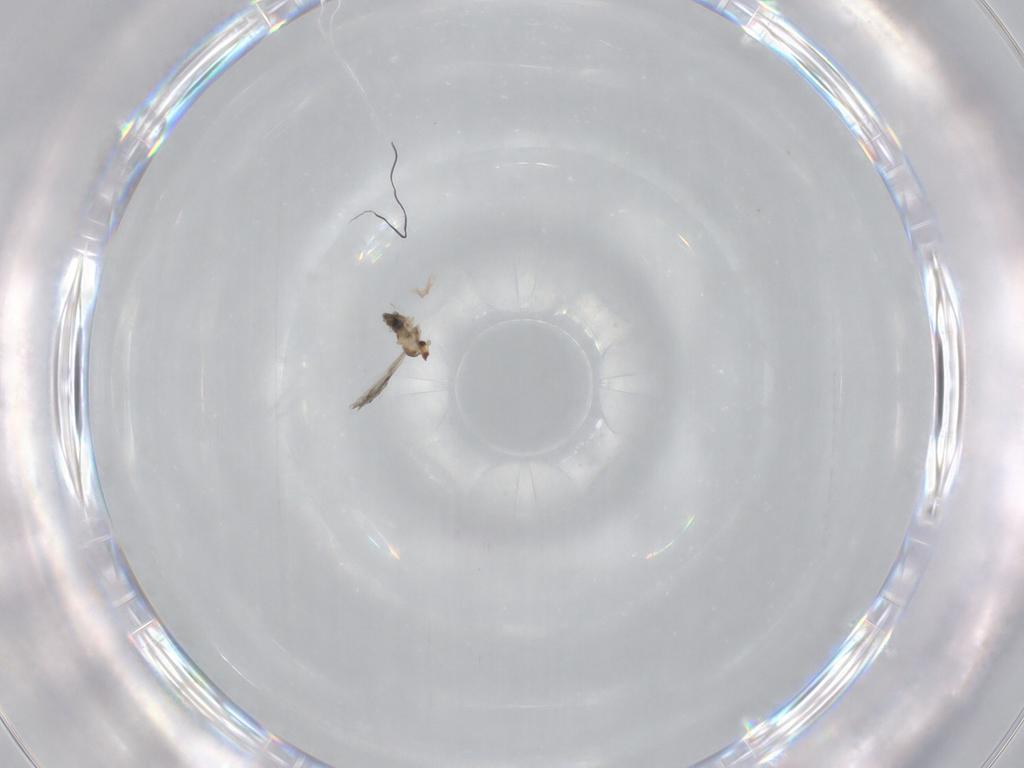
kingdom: Animalia
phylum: Arthropoda
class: Insecta
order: Diptera
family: Cecidomyiidae
